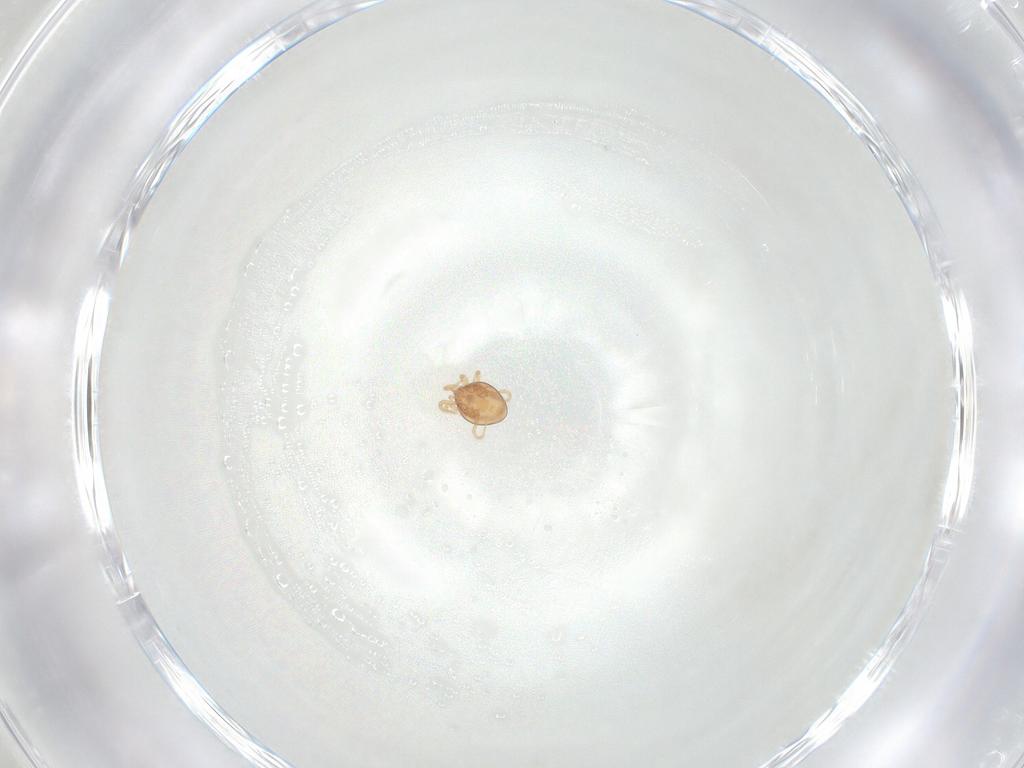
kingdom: Animalia
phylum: Arthropoda
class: Arachnida
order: Mesostigmata
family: Phytoseiidae
